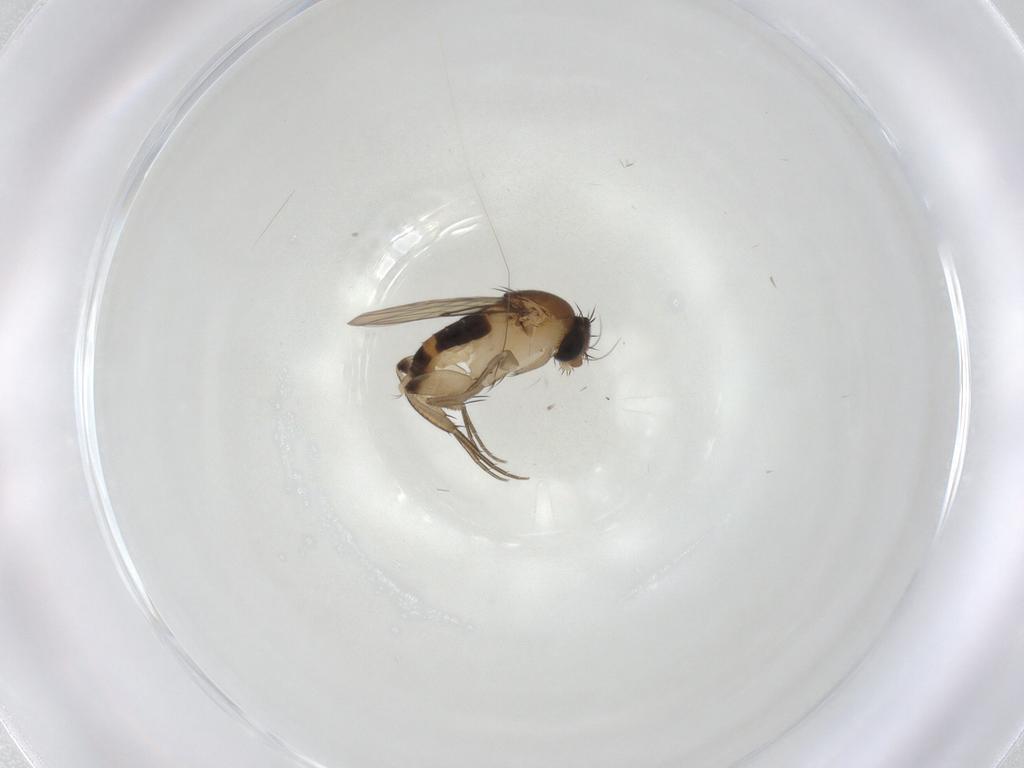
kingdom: Animalia
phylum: Arthropoda
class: Insecta
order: Diptera
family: Phoridae
